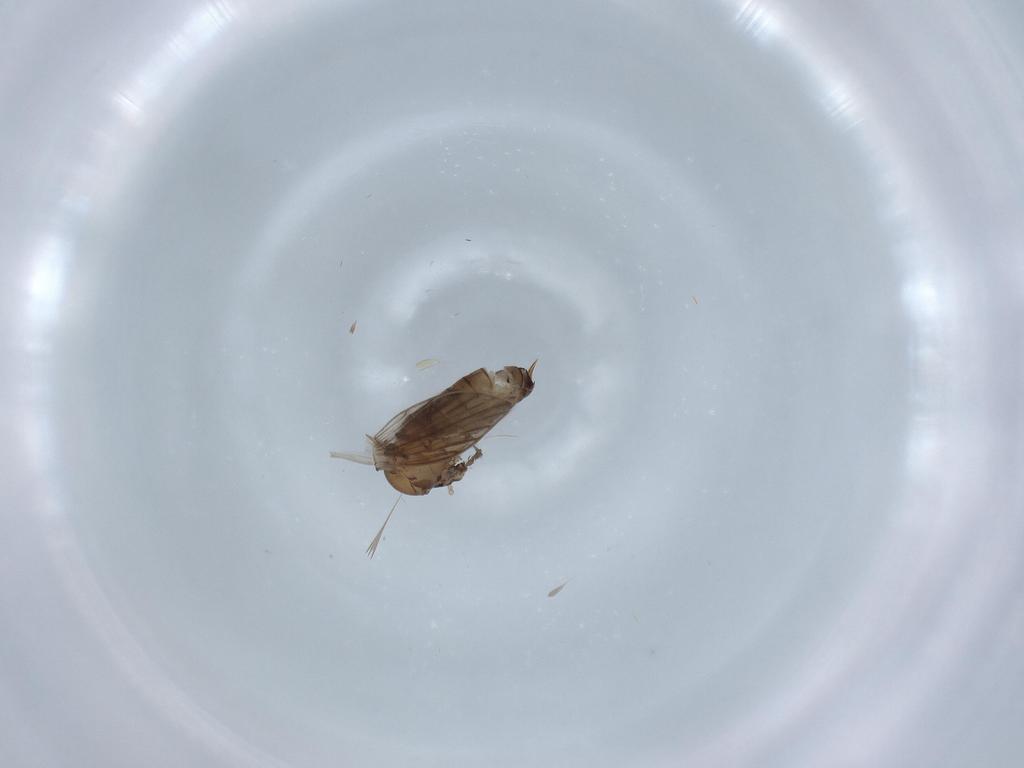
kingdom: Animalia
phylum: Arthropoda
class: Insecta
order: Diptera
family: Psychodidae
